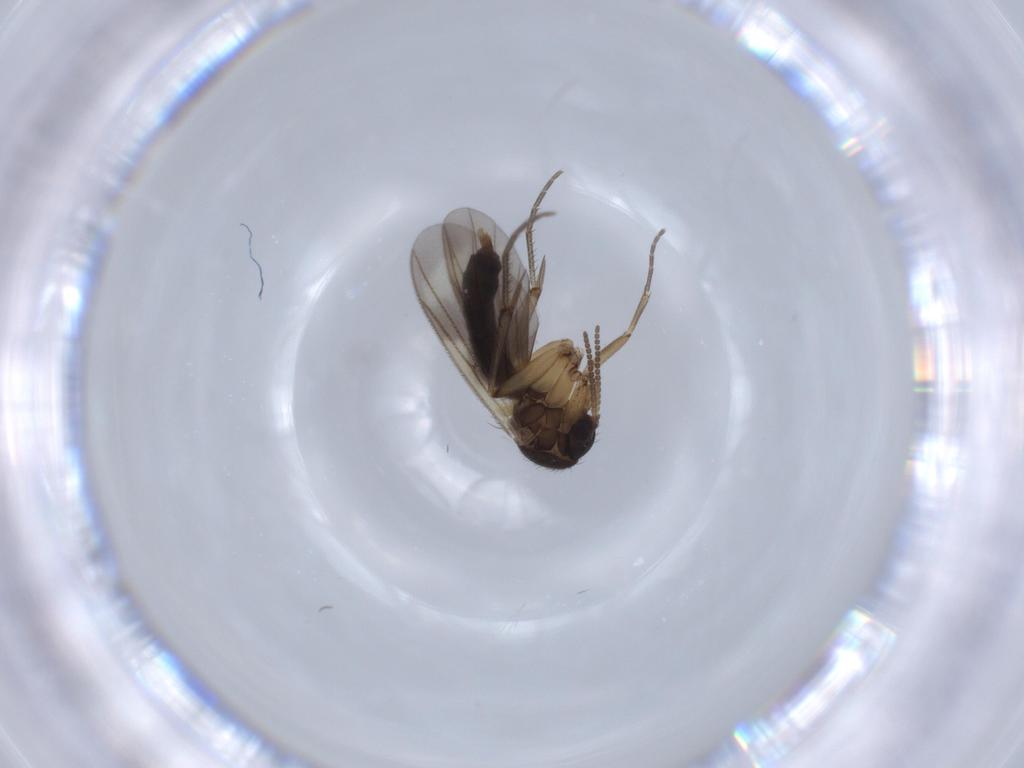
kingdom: Animalia
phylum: Arthropoda
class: Insecta
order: Diptera
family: Mycetophilidae
